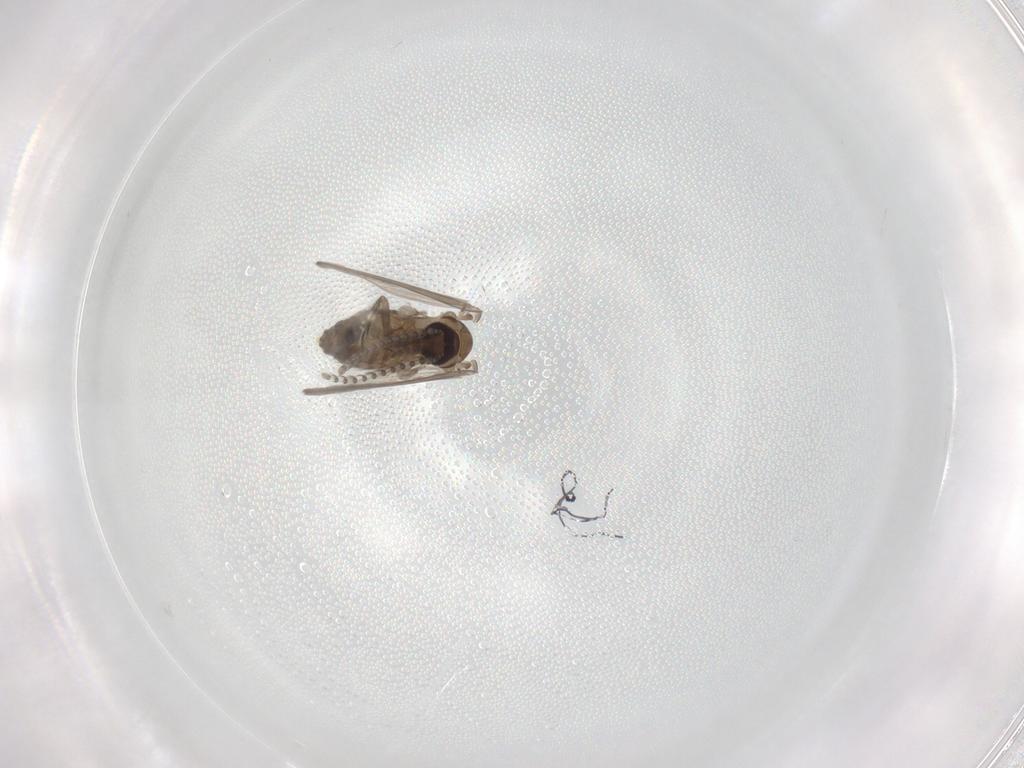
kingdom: Animalia
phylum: Arthropoda
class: Insecta
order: Diptera
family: Psychodidae
